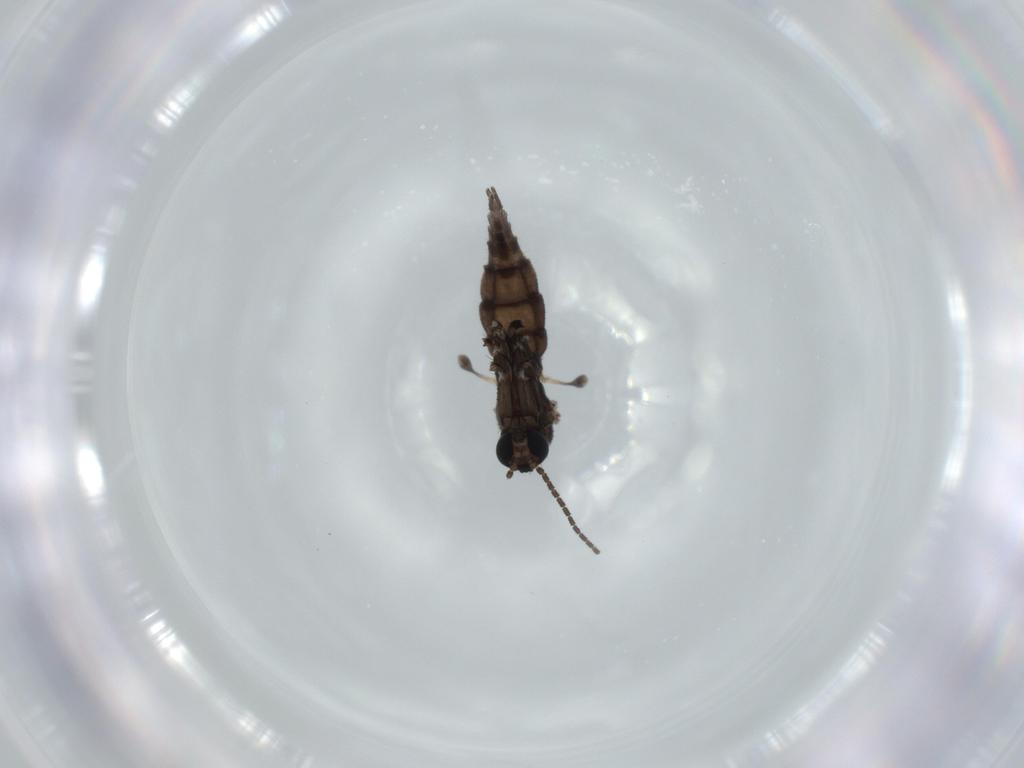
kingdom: Animalia
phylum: Arthropoda
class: Insecta
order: Diptera
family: Sciaridae
